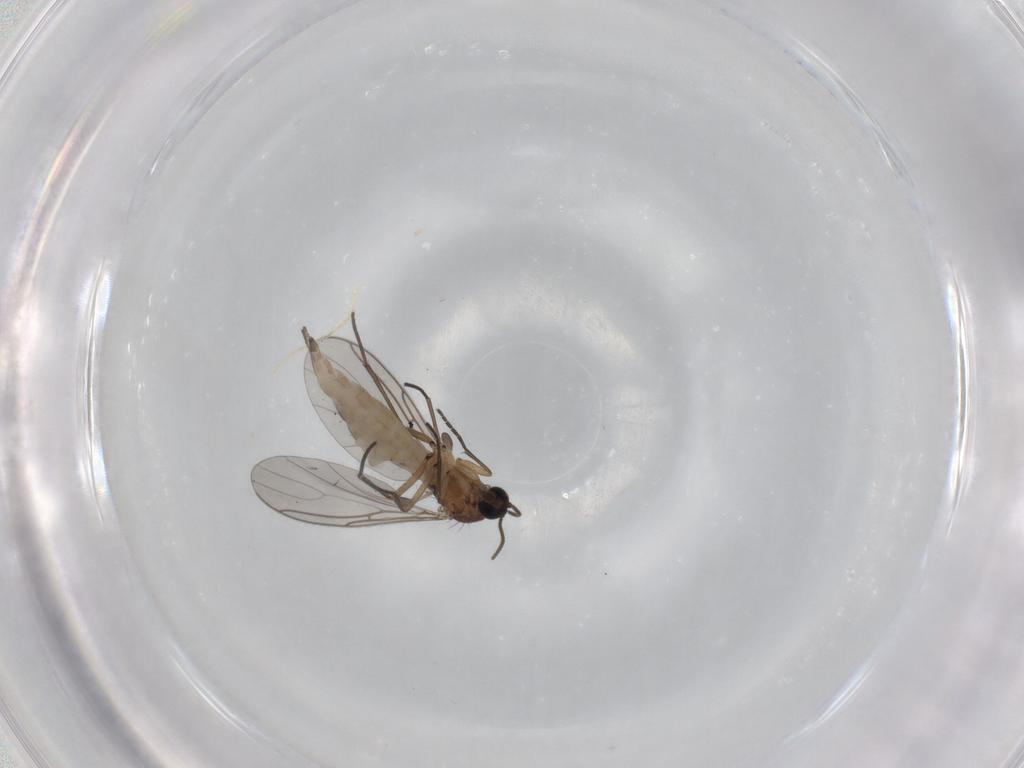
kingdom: Animalia
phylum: Arthropoda
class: Insecta
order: Diptera
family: Sciaridae
